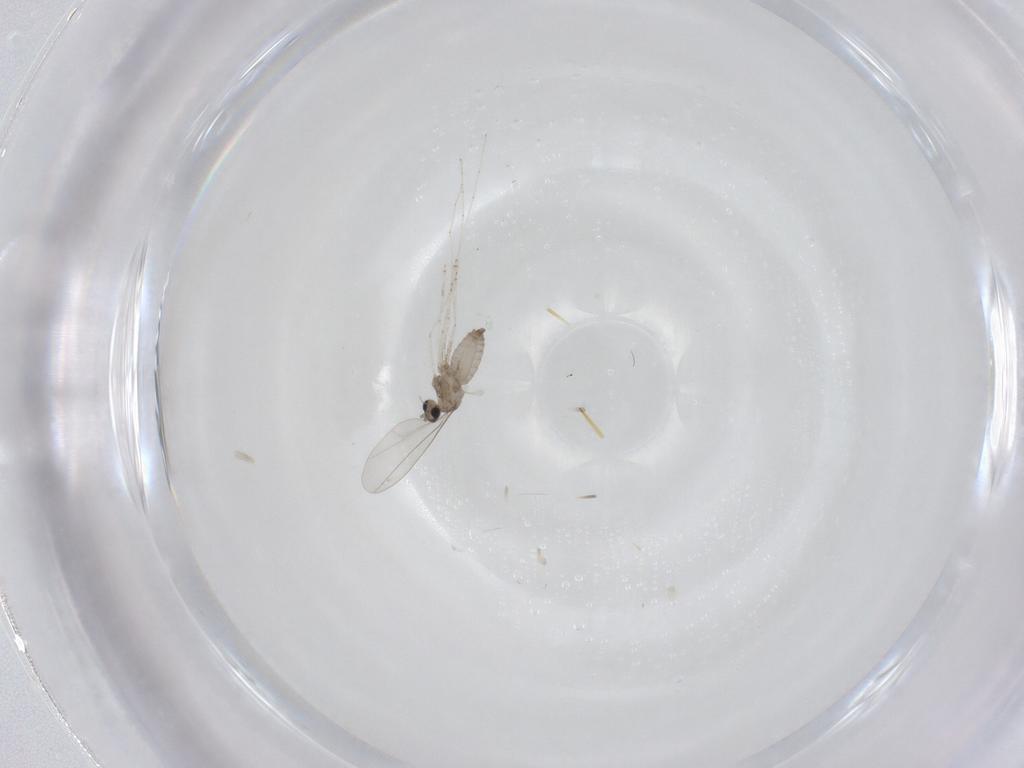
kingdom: Animalia
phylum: Arthropoda
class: Insecta
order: Diptera
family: Cecidomyiidae
